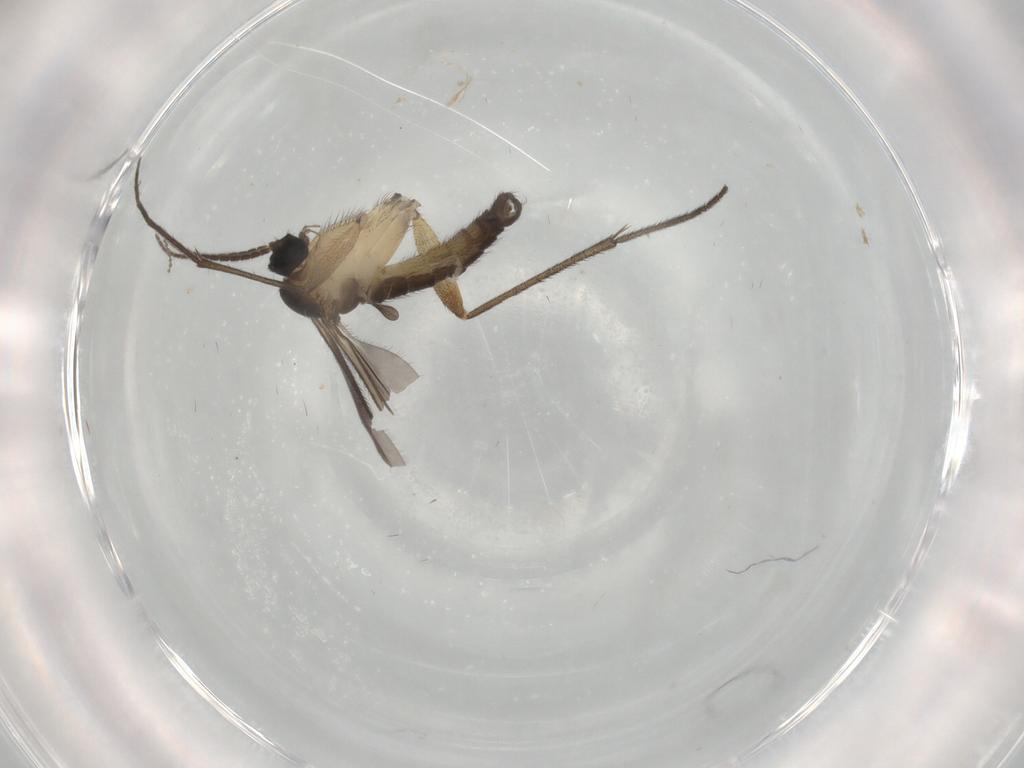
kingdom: Animalia
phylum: Arthropoda
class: Insecta
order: Diptera
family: Sciaridae
